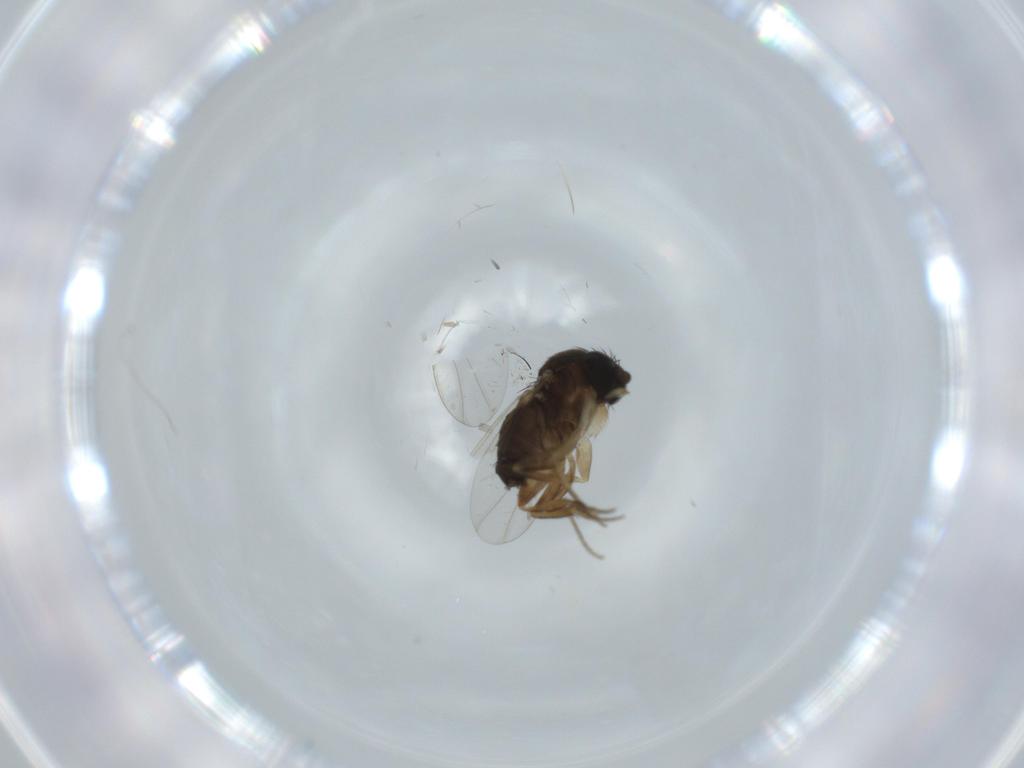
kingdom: Animalia
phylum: Arthropoda
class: Insecta
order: Diptera
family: Phoridae
